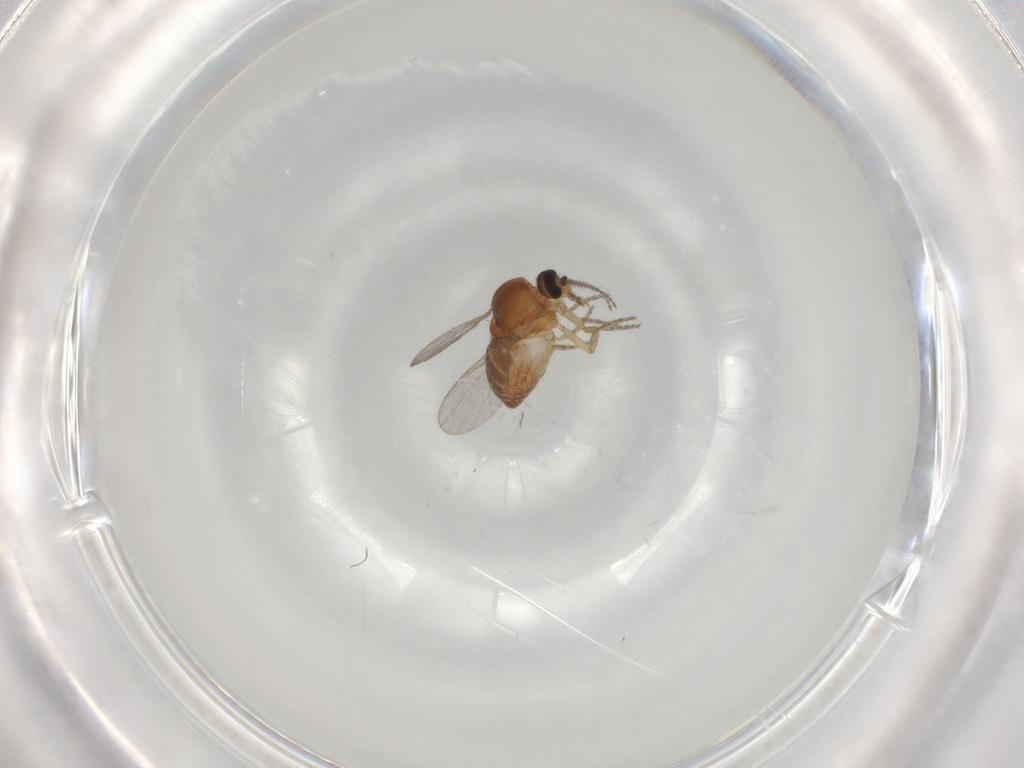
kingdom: Animalia
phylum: Arthropoda
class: Insecta
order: Diptera
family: Ceratopogonidae
